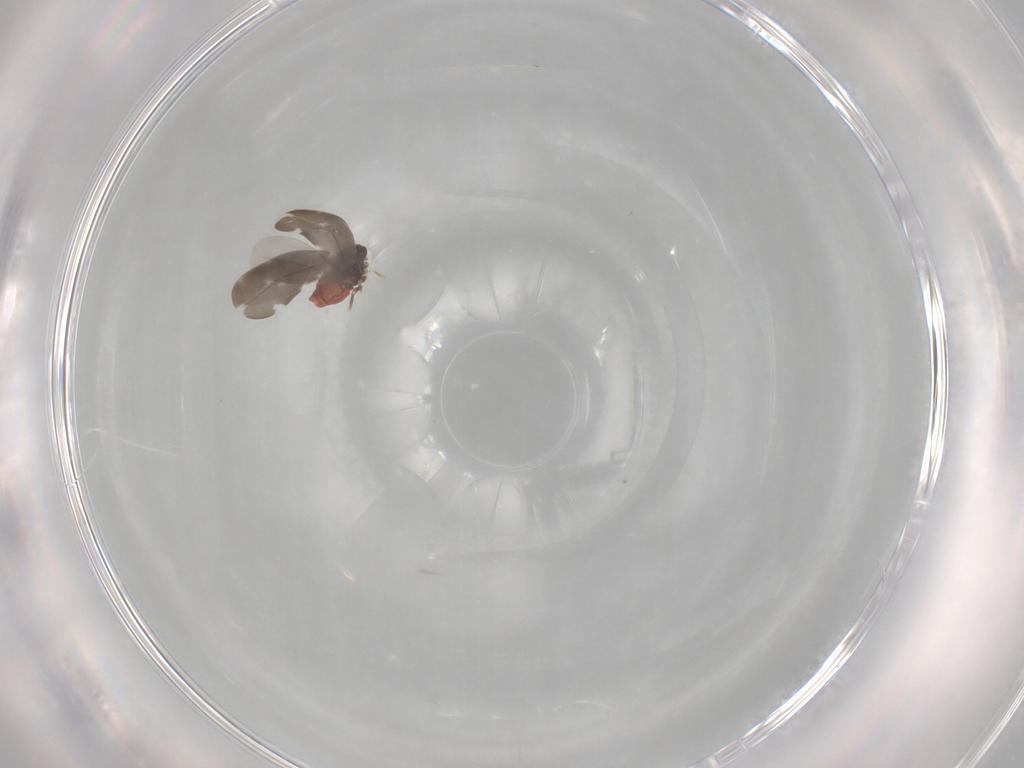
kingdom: Animalia
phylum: Arthropoda
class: Insecta
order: Hemiptera
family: Aleyrodidae
